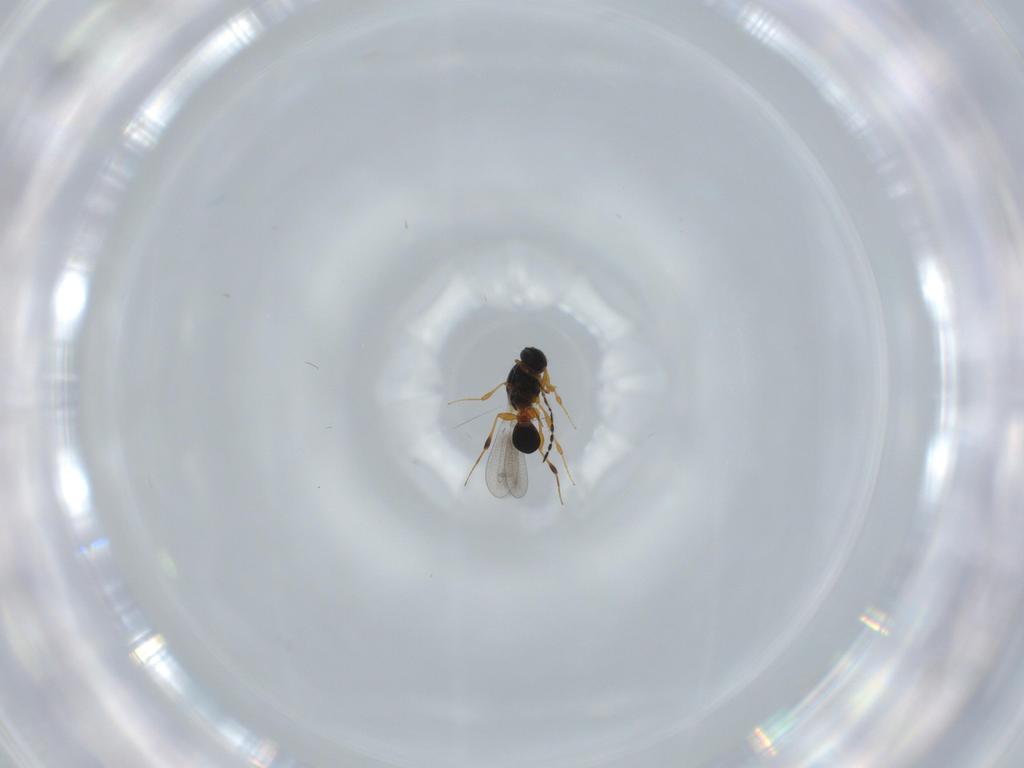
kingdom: Animalia
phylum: Arthropoda
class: Insecta
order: Hymenoptera
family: Platygastridae
